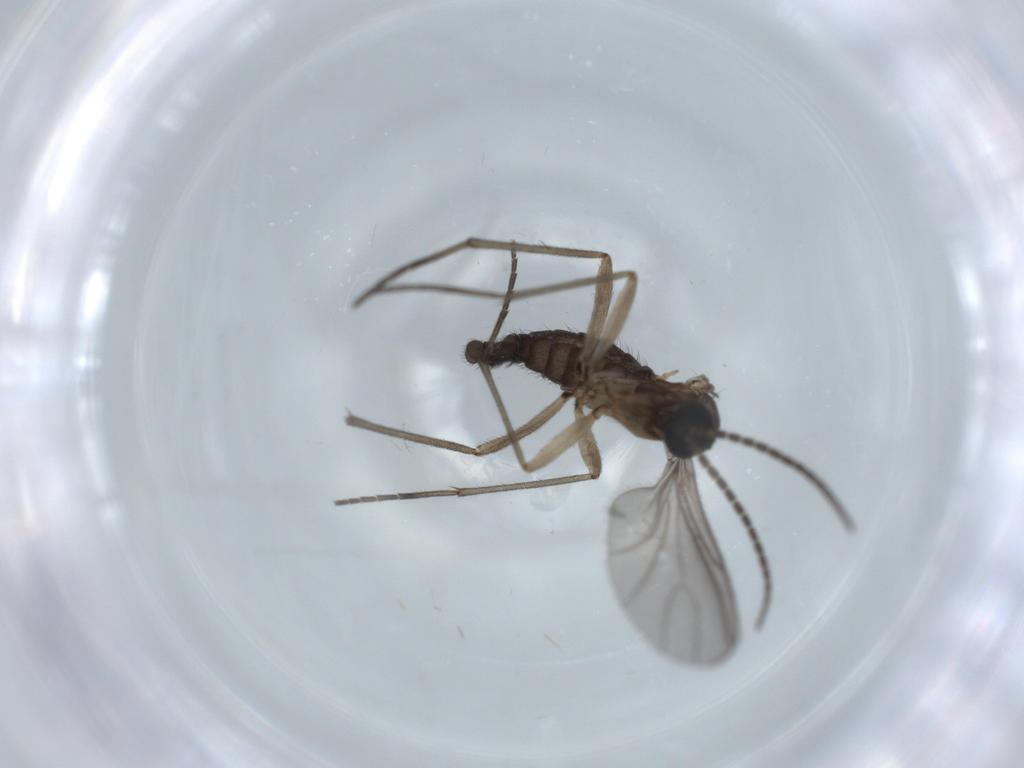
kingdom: Animalia
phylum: Arthropoda
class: Insecta
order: Diptera
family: Sciaridae
